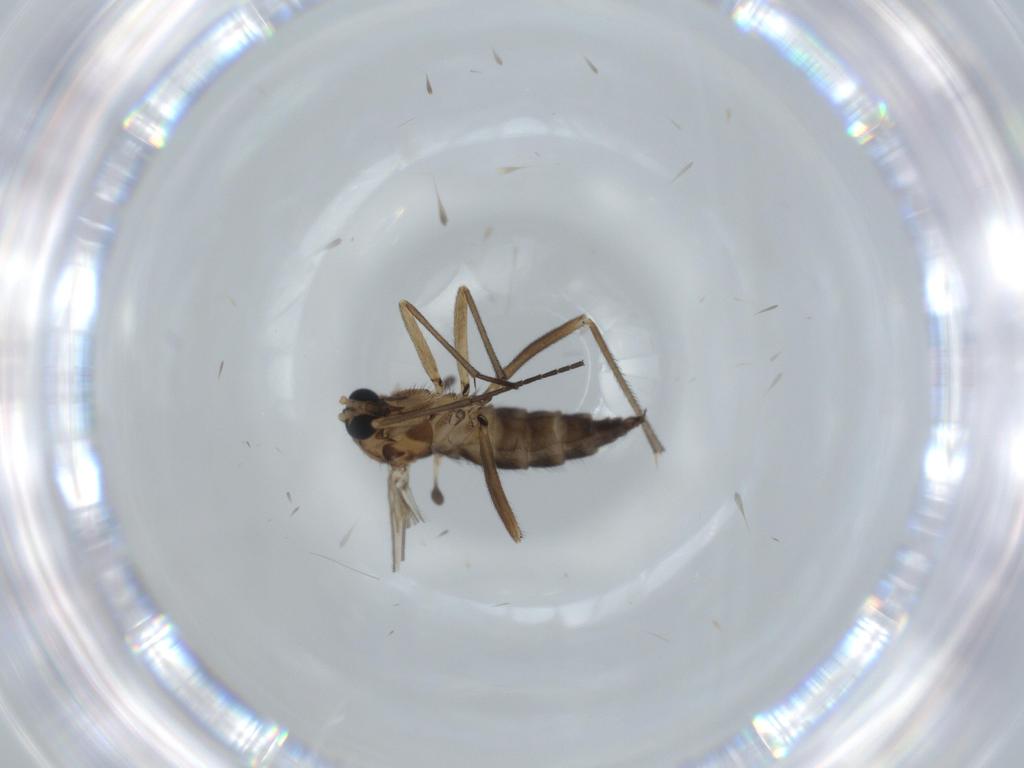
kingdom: Animalia
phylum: Arthropoda
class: Insecta
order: Diptera
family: Sciaridae
